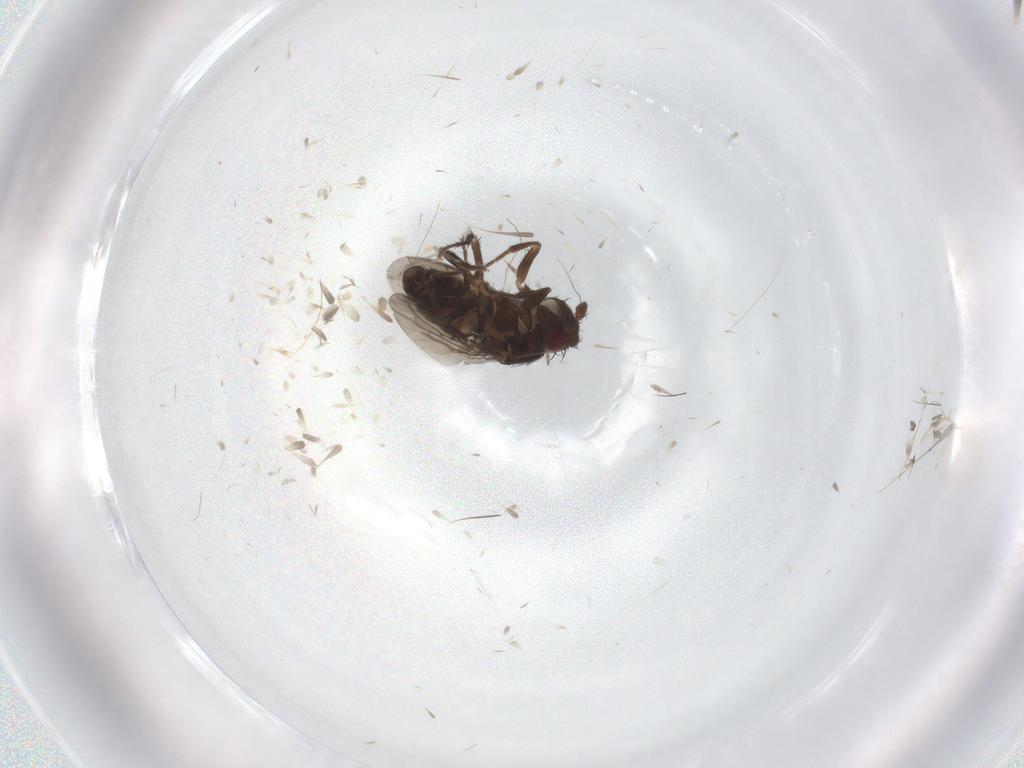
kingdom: Animalia
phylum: Arthropoda
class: Insecta
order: Diptera
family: Sphaeroceridae
